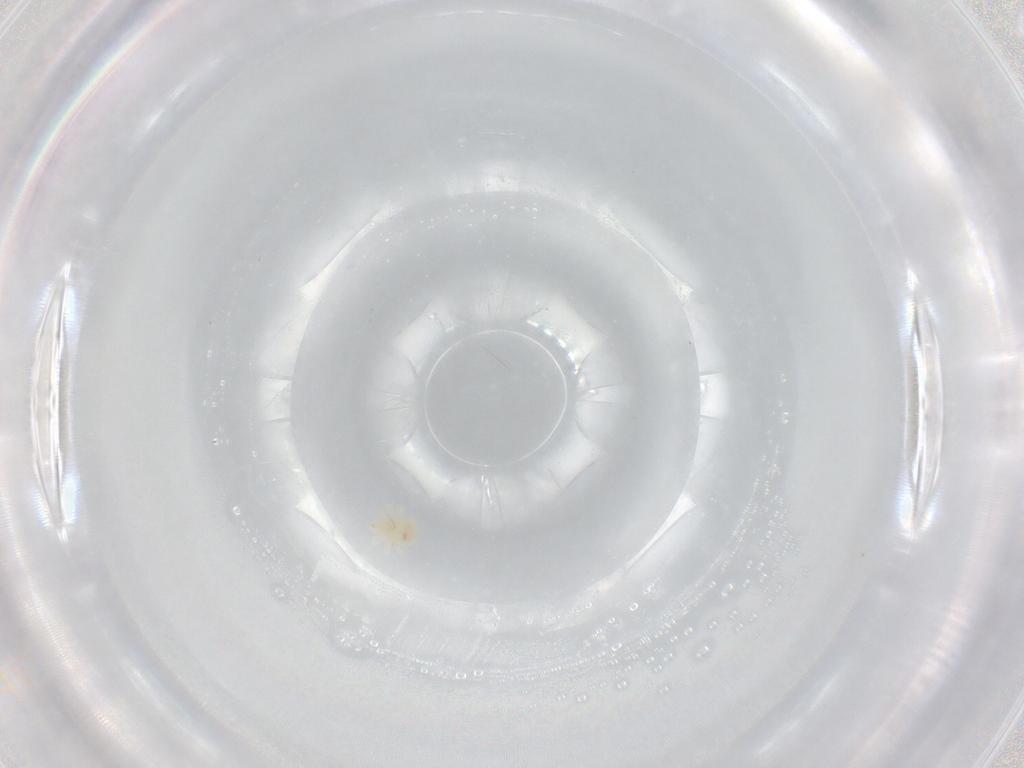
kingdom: Animalia
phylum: Arthropoda
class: Arachnida
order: Trombidiformes
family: Anystidae
